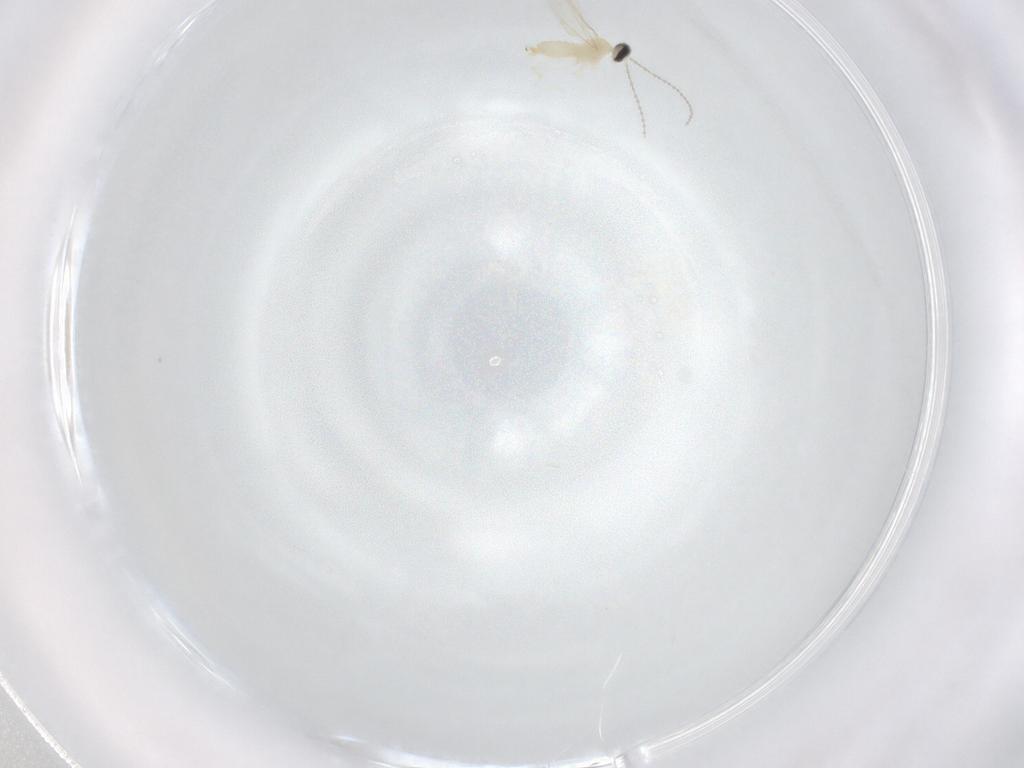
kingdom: Animalia
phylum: Arthropoda
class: Insecta
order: Diptera
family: Cecidomyiidae
